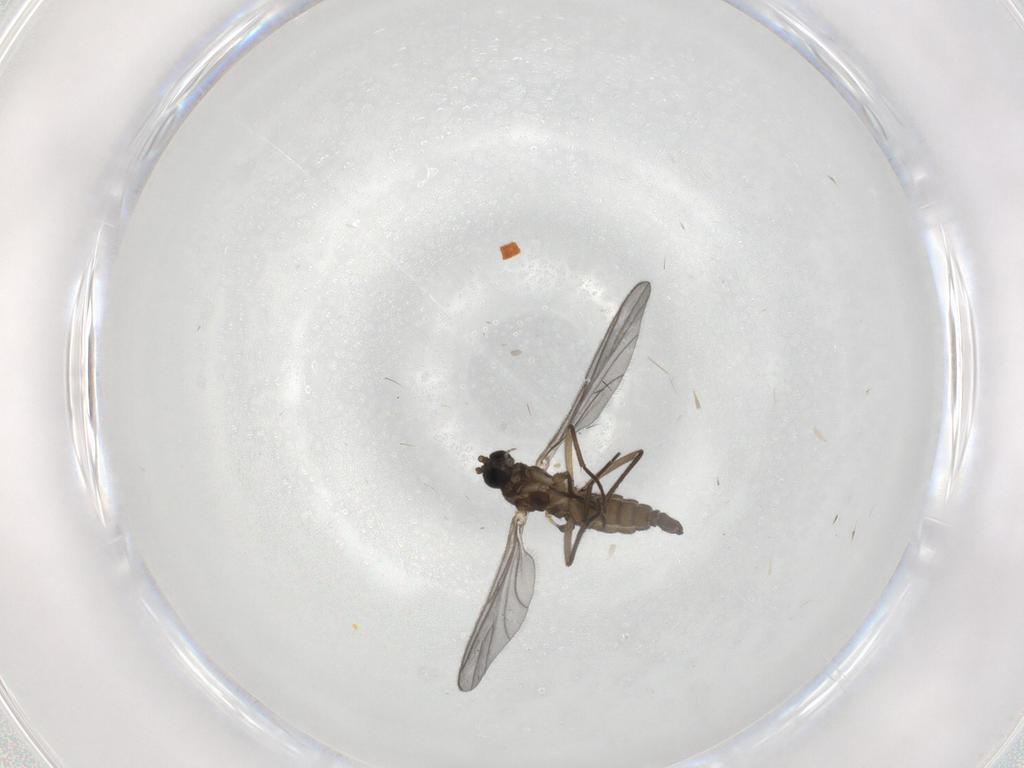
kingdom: Animalia
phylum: Arthropoda
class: Insecta
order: Diptera
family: Sciaridae
